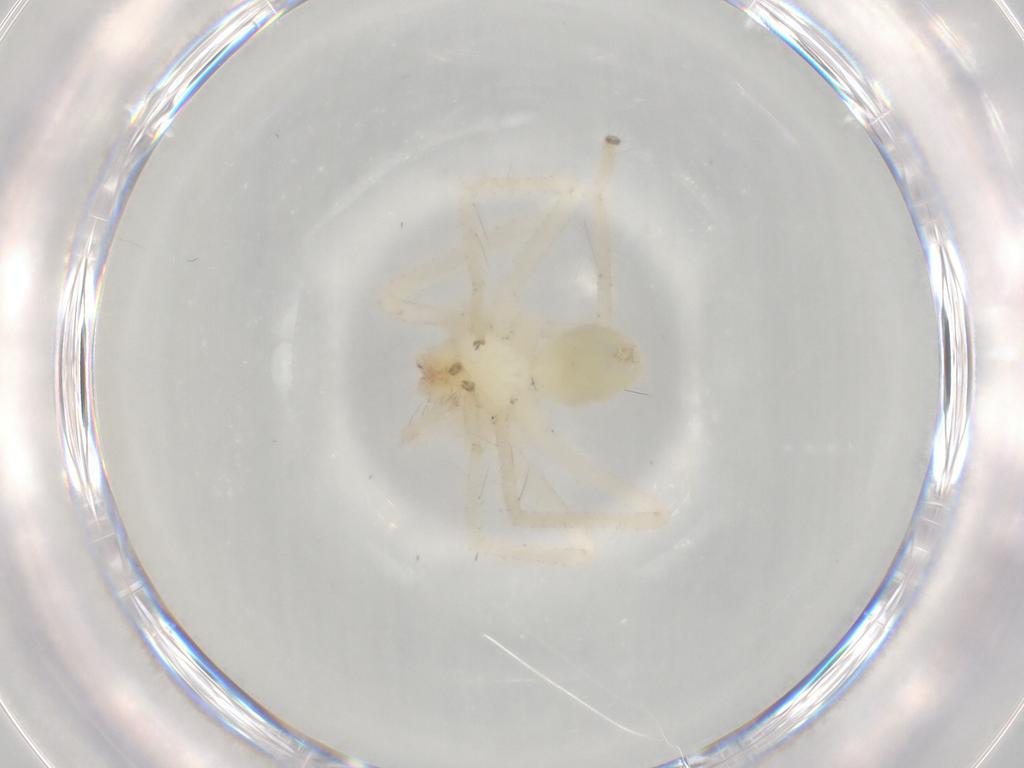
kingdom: Animalia
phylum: Arthropoda
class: Arachnida
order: Araneae
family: Sparassidae
